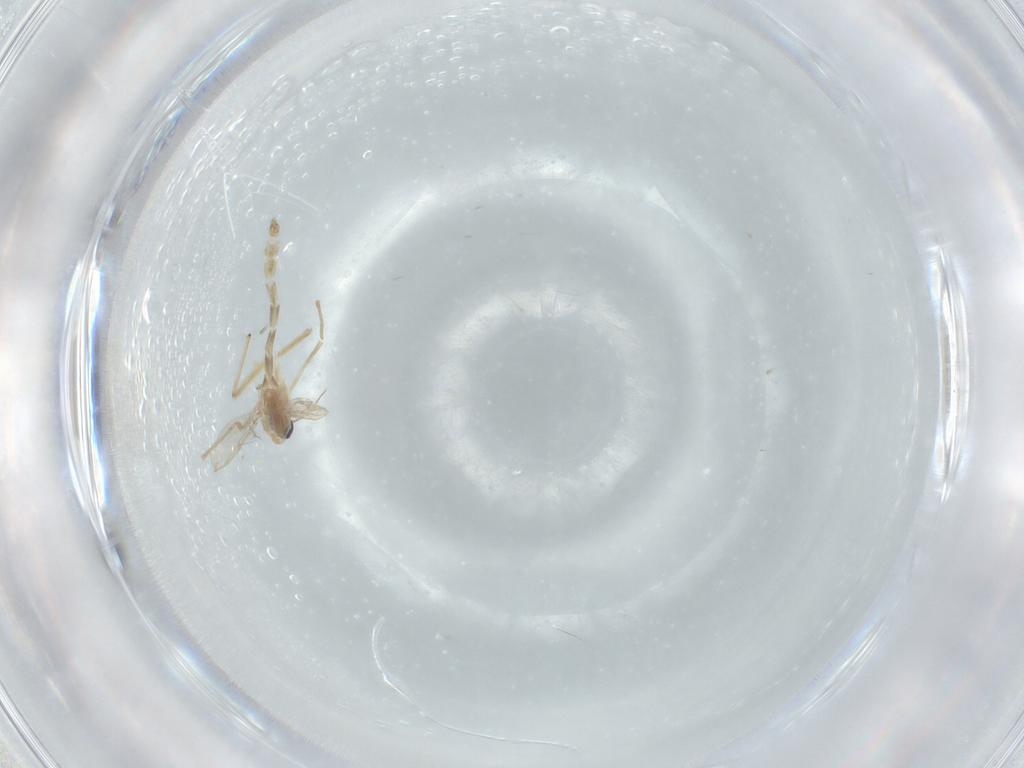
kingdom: Animalia
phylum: Arthropoda
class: Insecta
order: Diptera
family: Chironomidae
